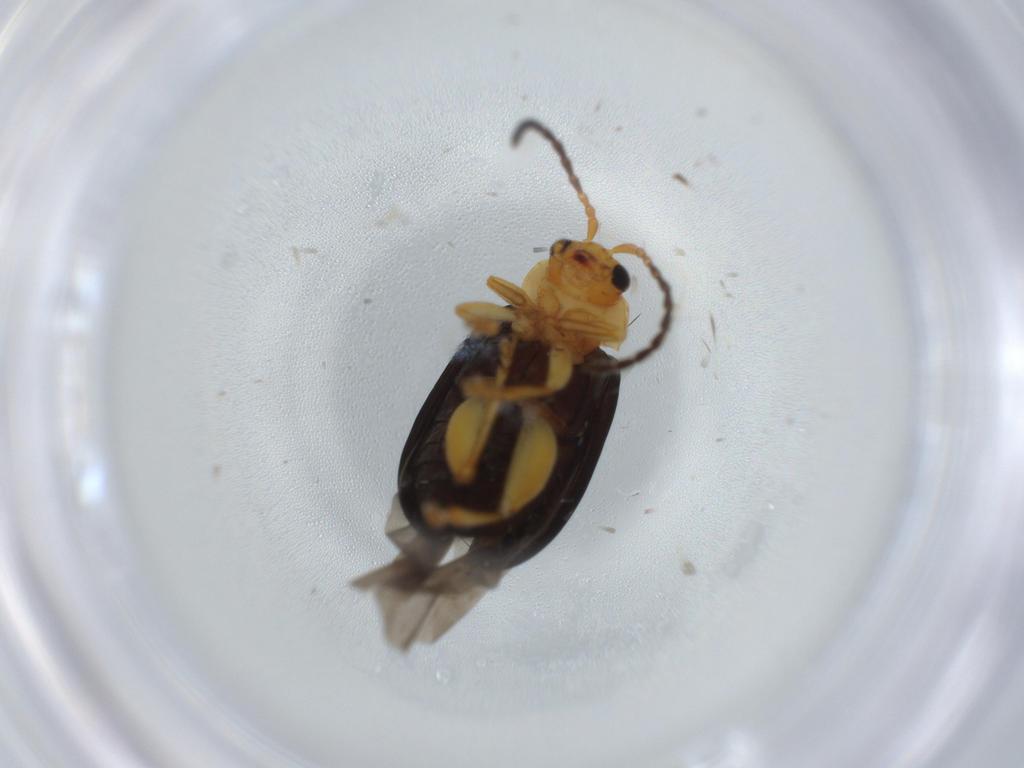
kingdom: Animalia
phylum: Arthropoda
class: Insecta
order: Coleoptera
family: Chrysomelidae
